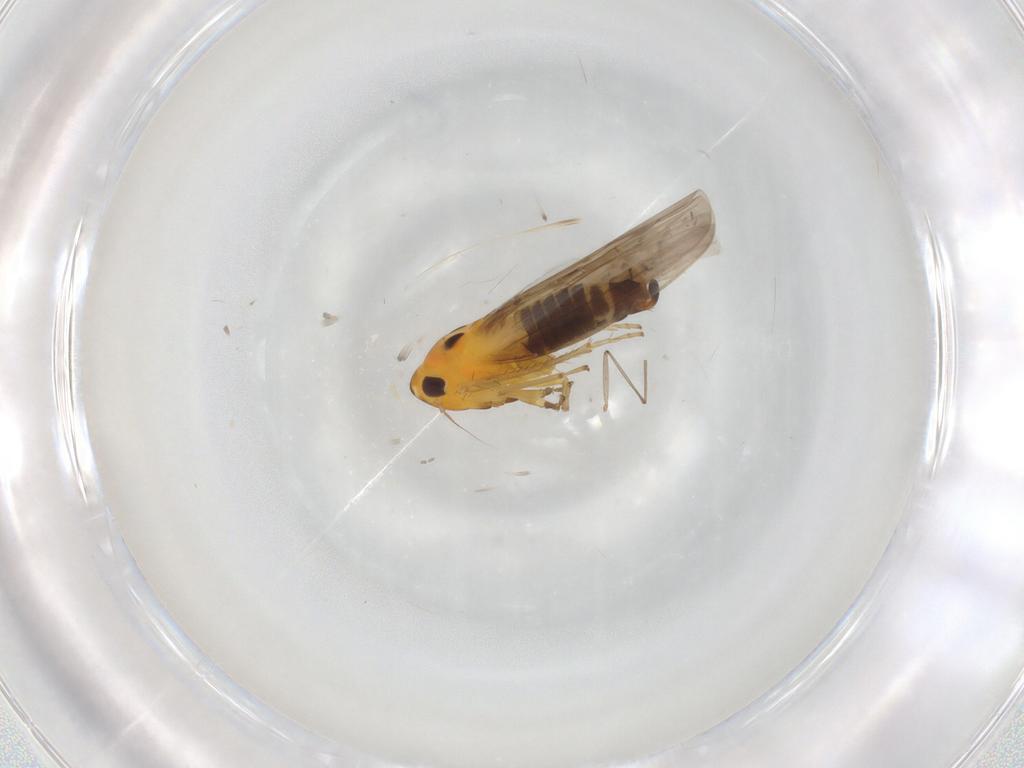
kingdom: Animalia
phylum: Arthropoda
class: Insecta
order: Hemiptera
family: Cicadellidae
